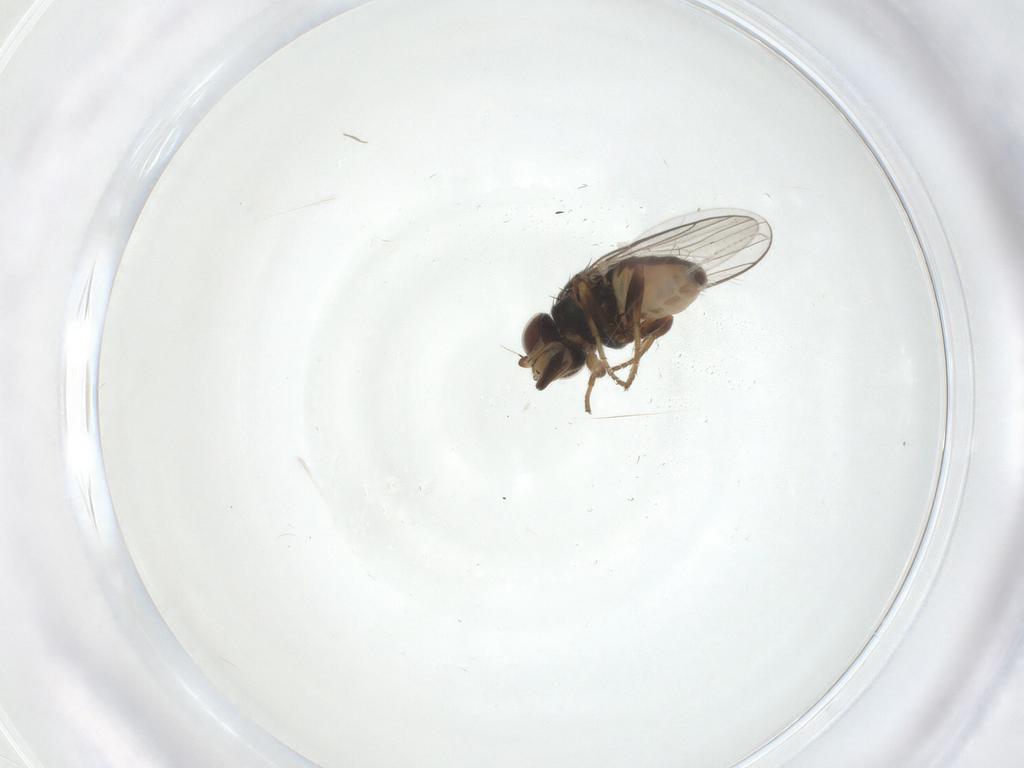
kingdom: Animalia
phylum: Arthropoda
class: Insecta
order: Diptera
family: Chloropidae
